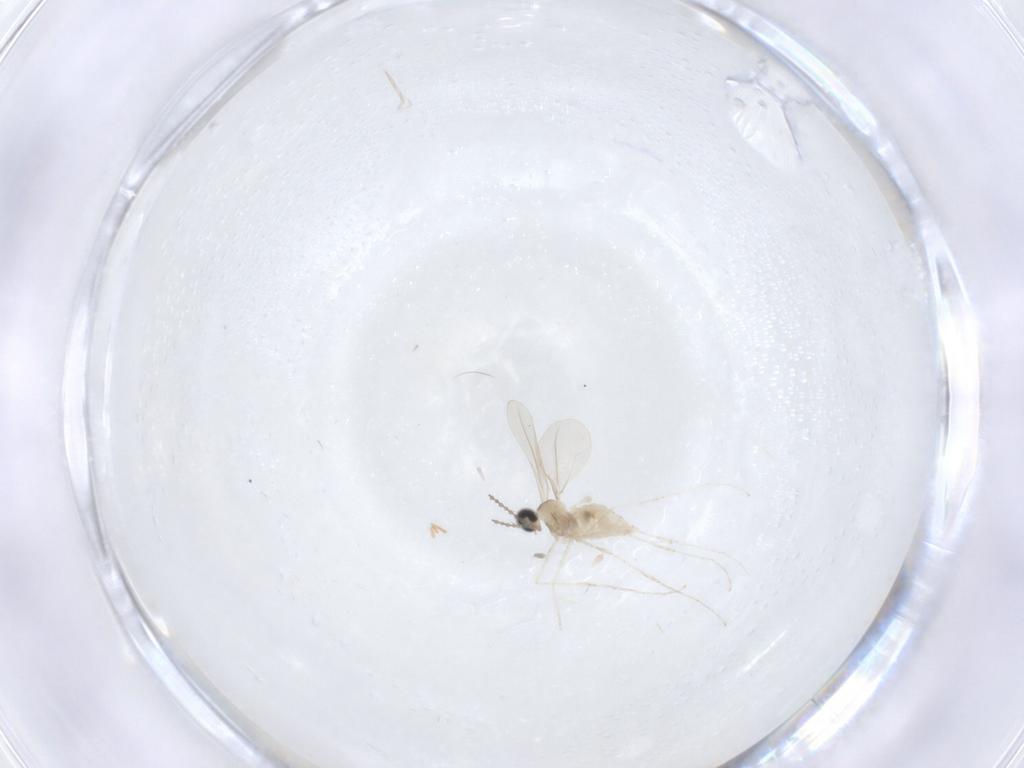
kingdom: Animalia
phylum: Arthropoda
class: Insecta
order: Diptera
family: Cecidomyiidae
